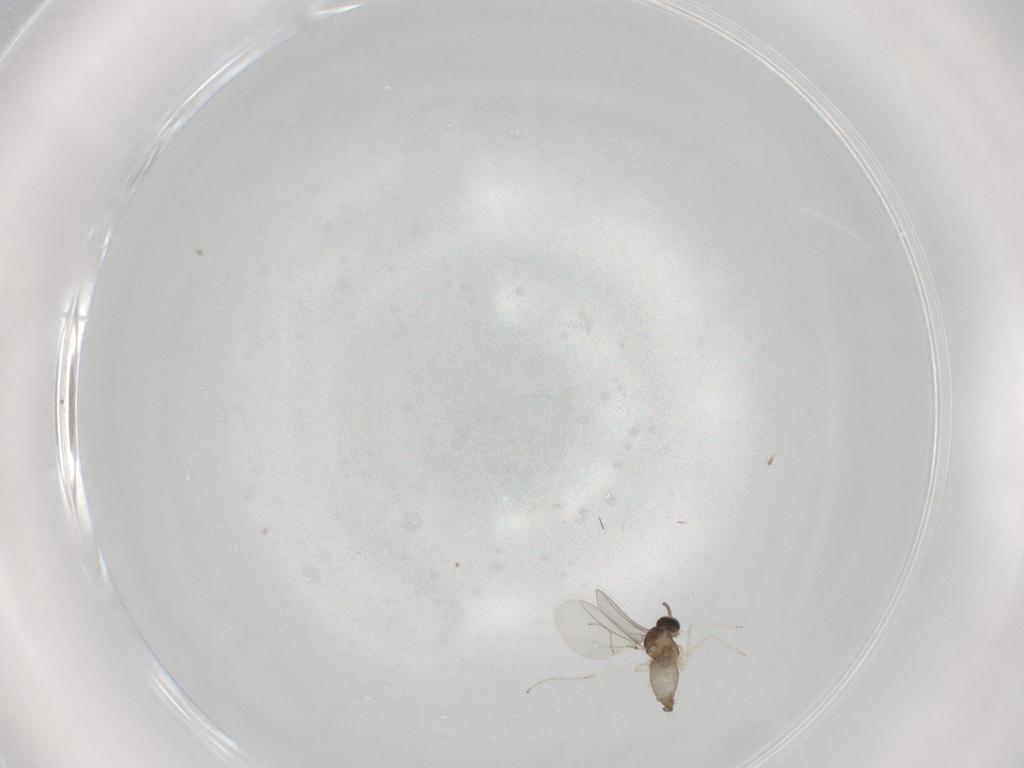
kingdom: Animalia
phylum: Arthropoda
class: Insecta
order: Diptera
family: Cecidomyiidae
